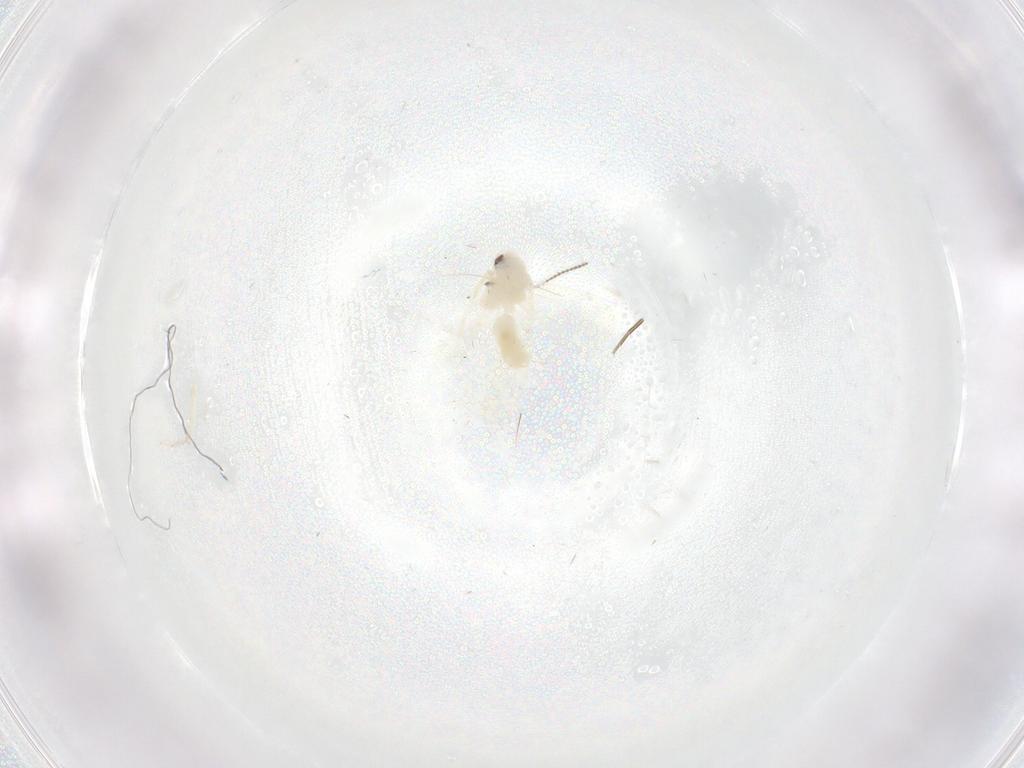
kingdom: Animalia
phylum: Arthropoda
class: Insecta
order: Hemiptera
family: Aleyrodidae
